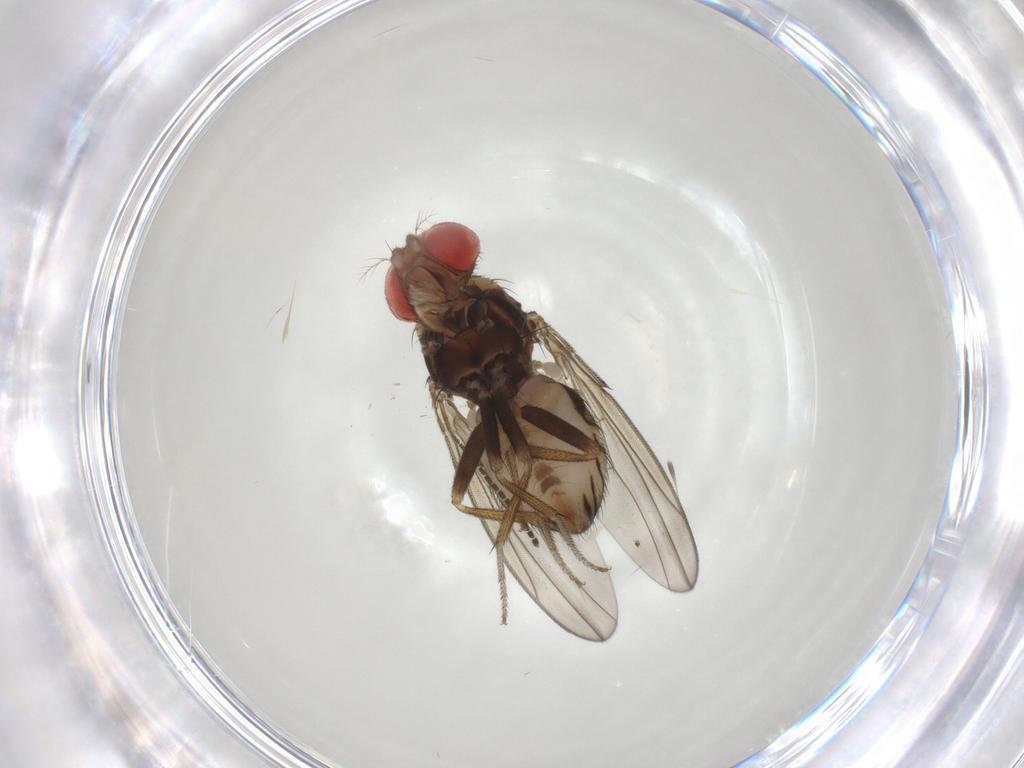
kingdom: Animalia
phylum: Arthropoda
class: Insecta
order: Diptera
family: Drosophilidae
